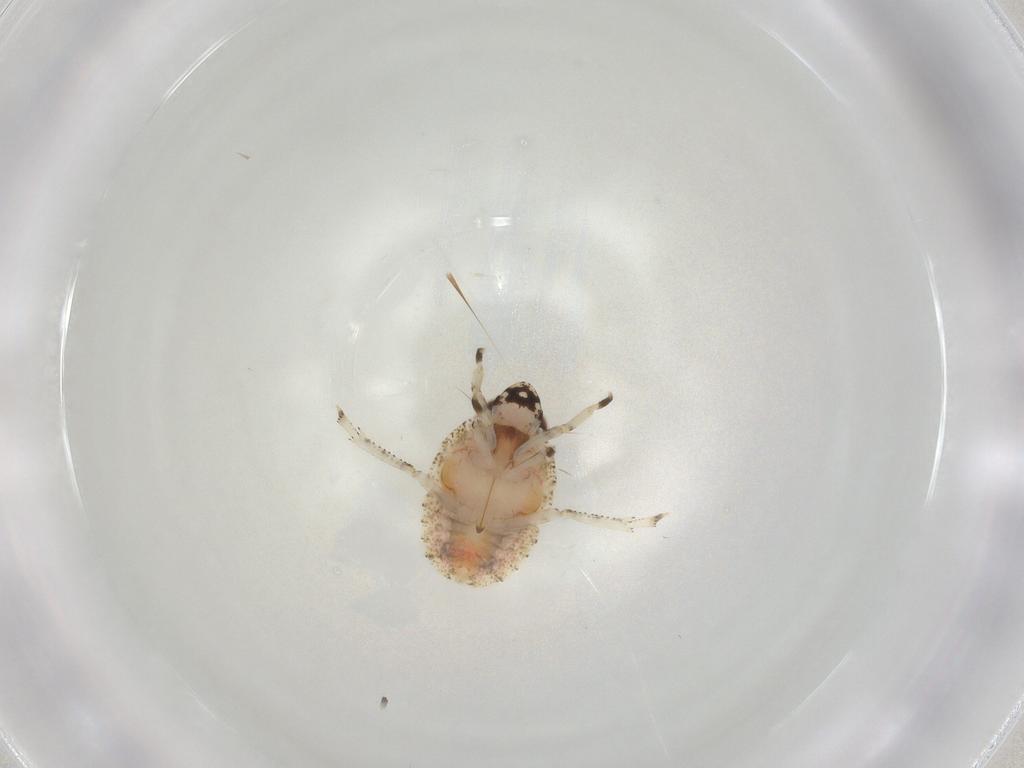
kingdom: Animalia
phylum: Arthropoda
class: Insecta
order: Hemiptera
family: Gengidae
